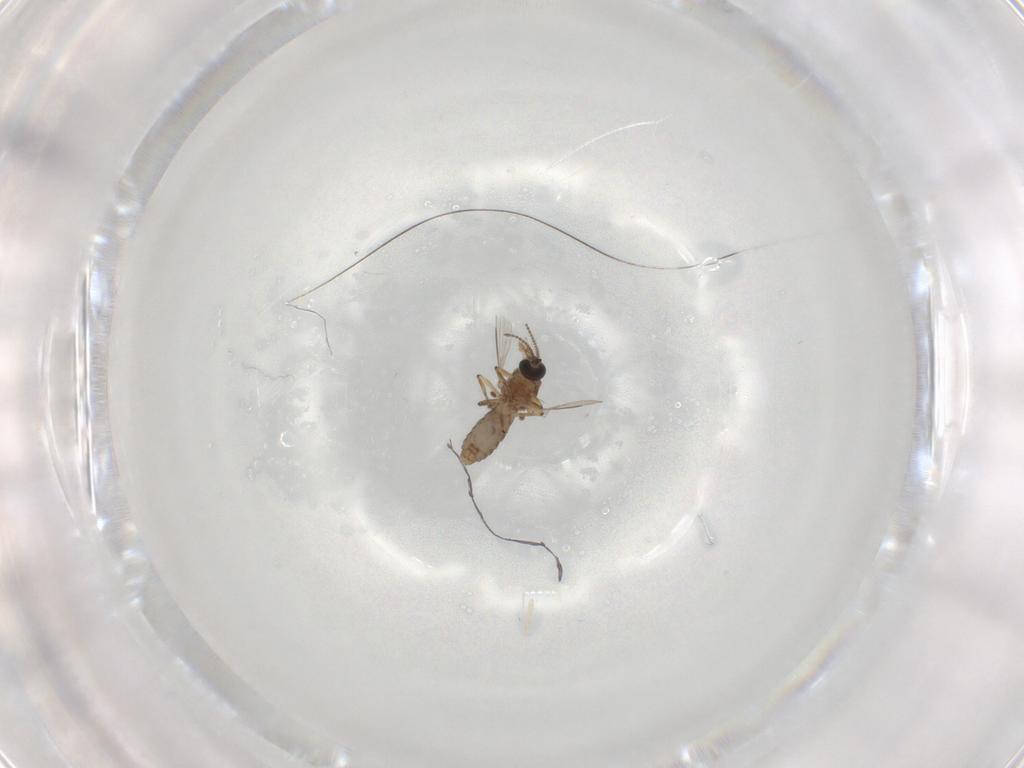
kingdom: Animalia
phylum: Arthropoda
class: Insecta
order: Diptera
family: Ceratopogonidae
